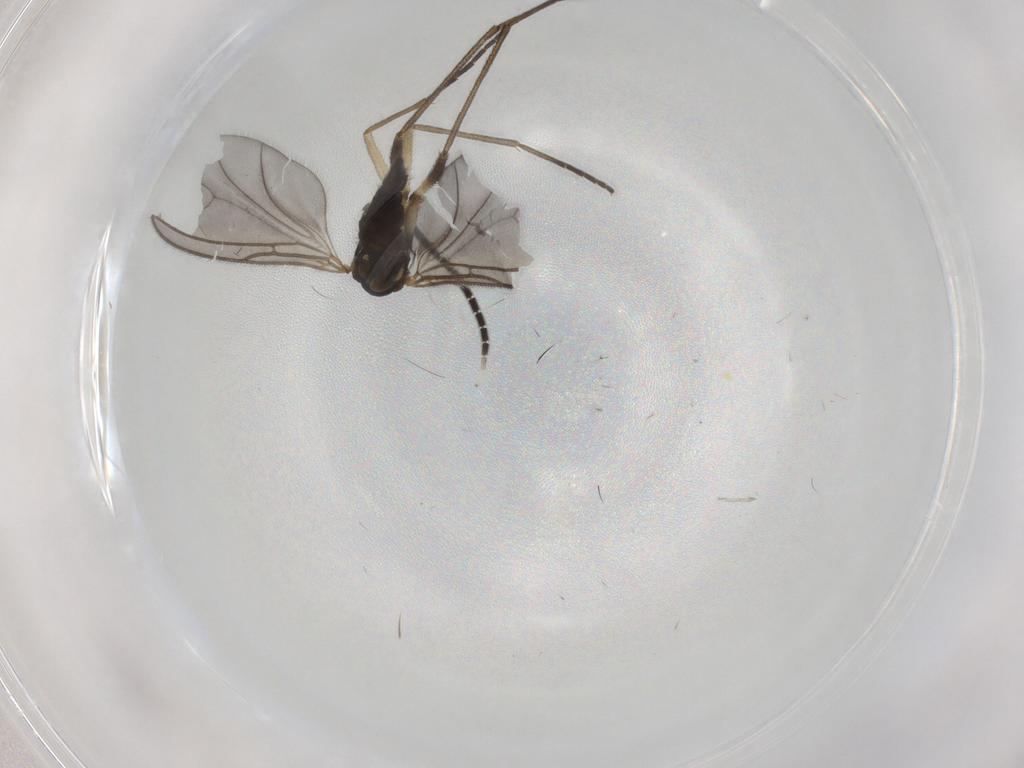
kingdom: Animalia
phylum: Arthropoda
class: Insecta
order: Diptera
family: Sciaridae
